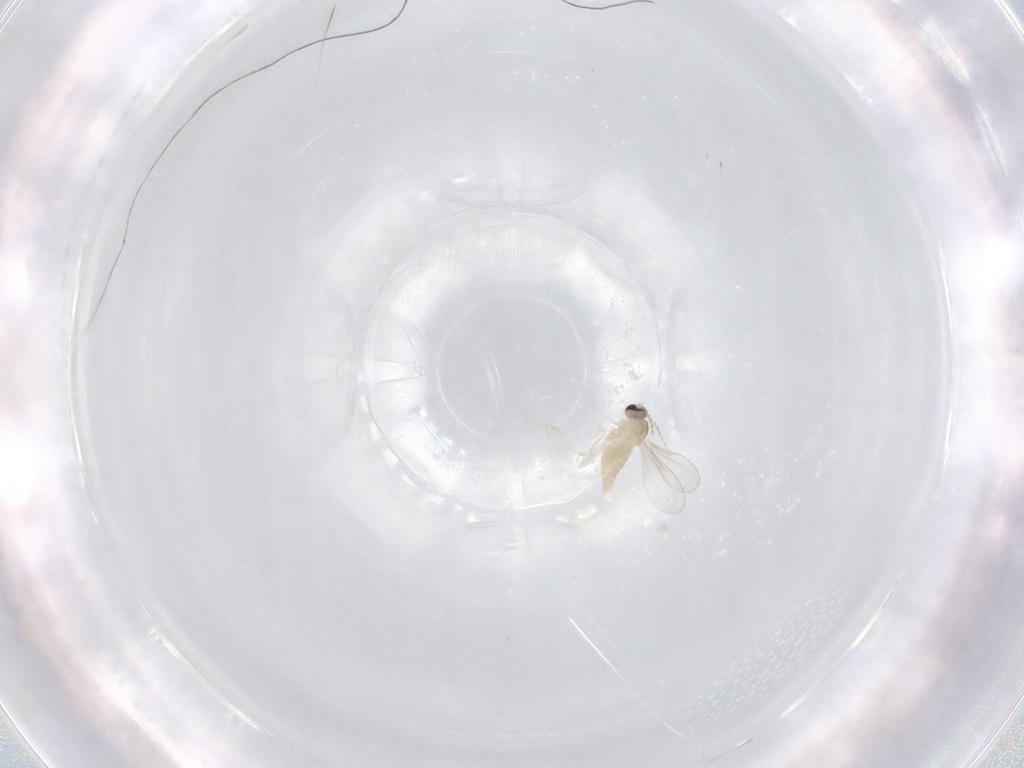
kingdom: Animalia
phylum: Arthropoda
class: Insecta
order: Diptera
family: Cecidomyiidae
